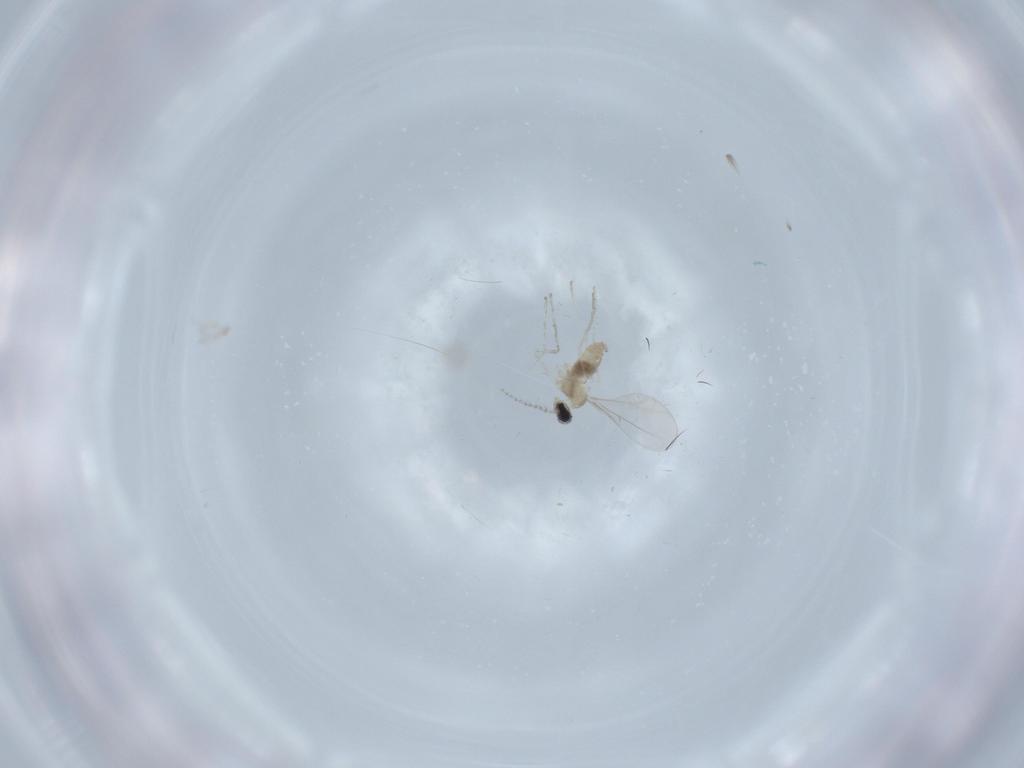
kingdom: Animalia
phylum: Arthropoda
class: Insecta
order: Diptera
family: Cecidomyiidae
